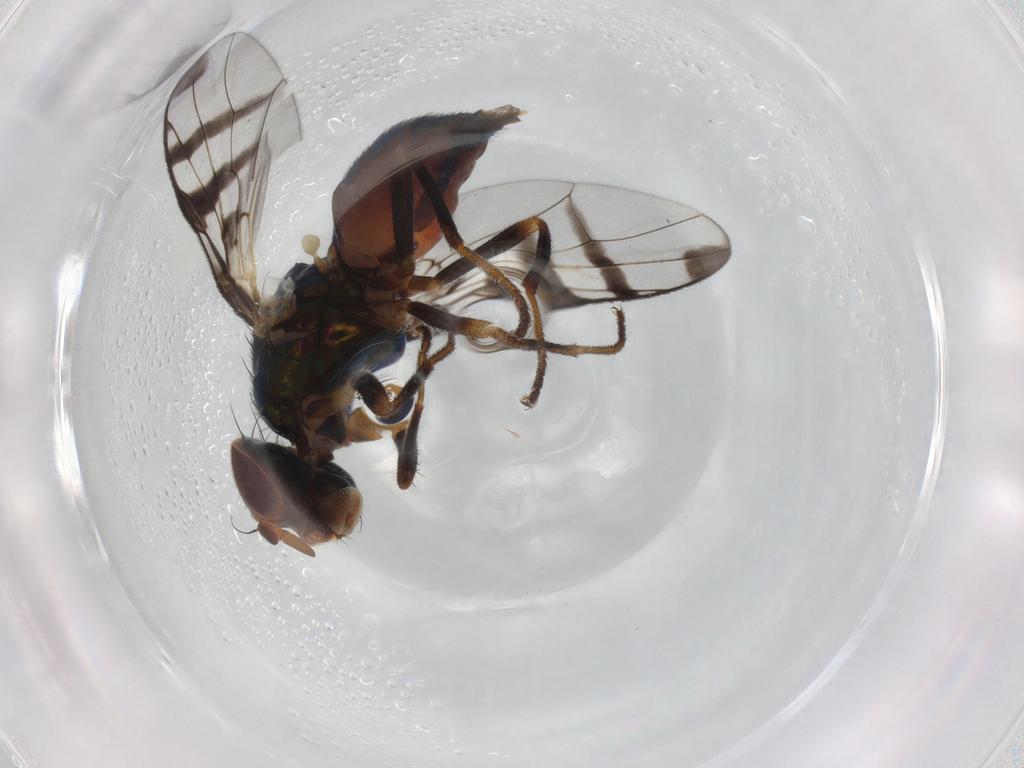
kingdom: Animalia
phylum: Arthropoda
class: Insecta
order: Diptera
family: Platystomatidae
